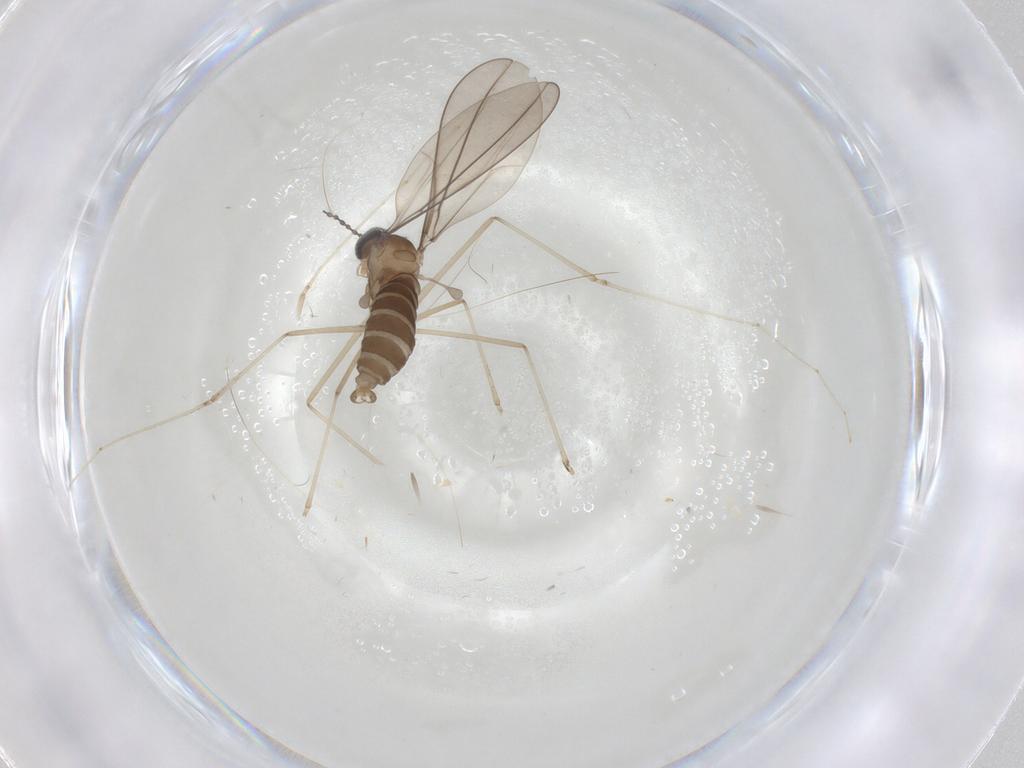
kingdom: Animalia
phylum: Arthropoda
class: Insecta
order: Diptera
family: Cecidomyiidae
